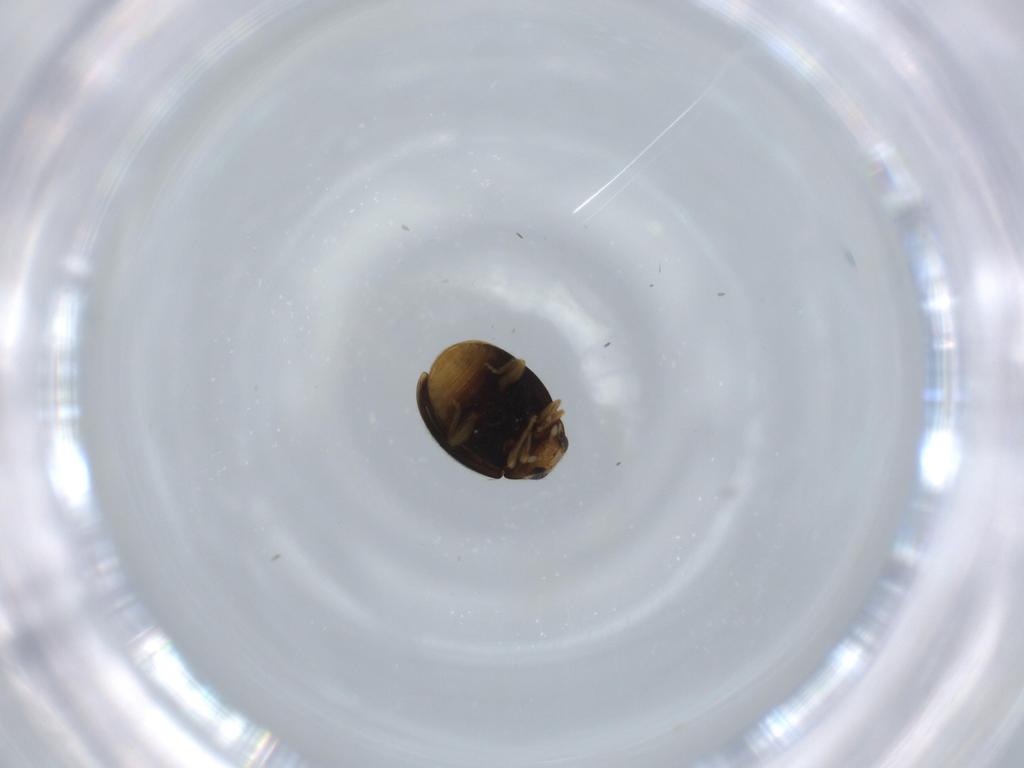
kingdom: Animalia
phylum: Arthropoda
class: Insecta
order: Coleoptera
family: Coccinellidae
